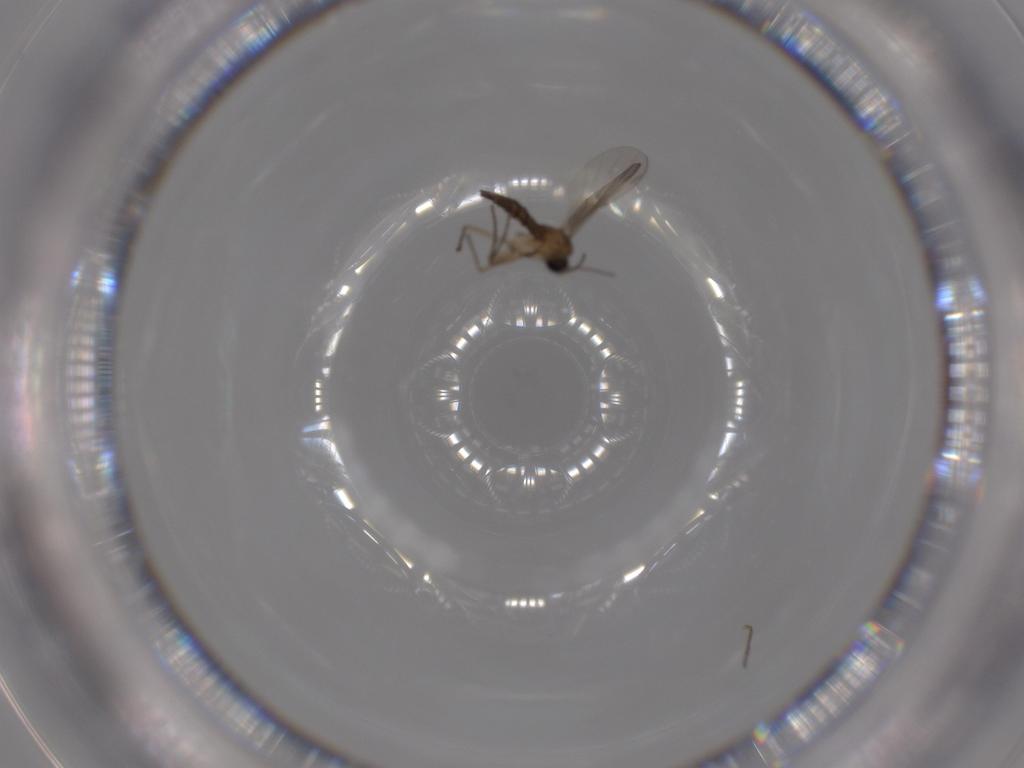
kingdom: Animalia
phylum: Arthropoda
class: Insecta
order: Diptera
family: Sciaridae
